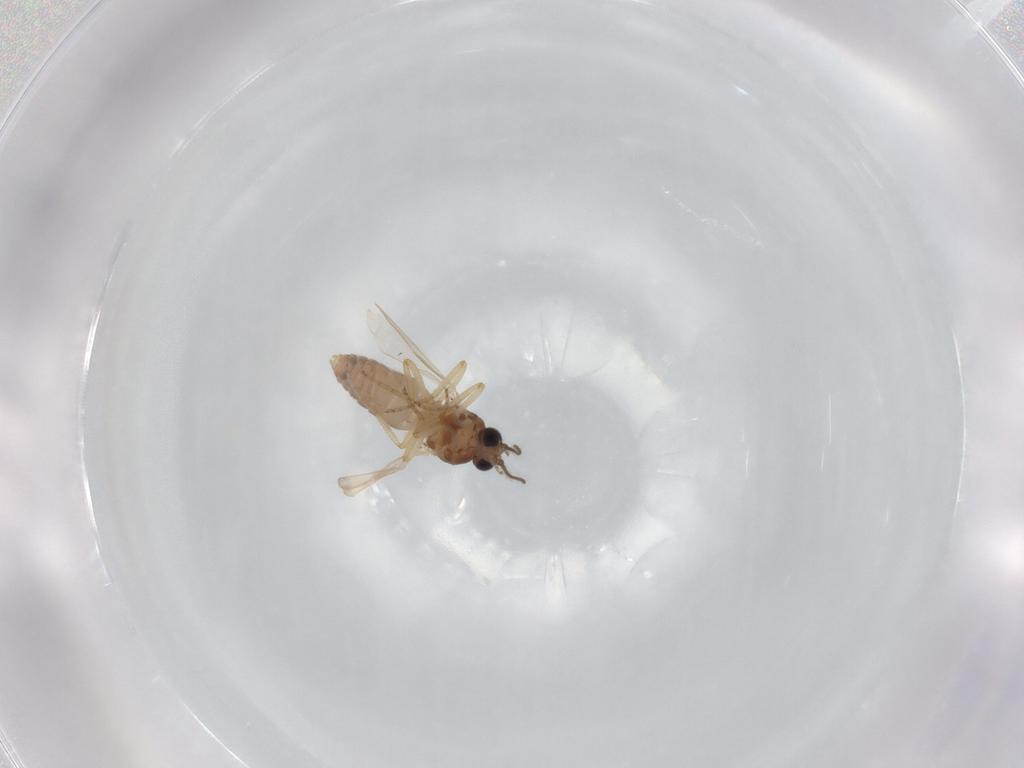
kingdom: Animalia
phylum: Arthropoda
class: Insecta
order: Diptera
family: Ceratopogonidae
